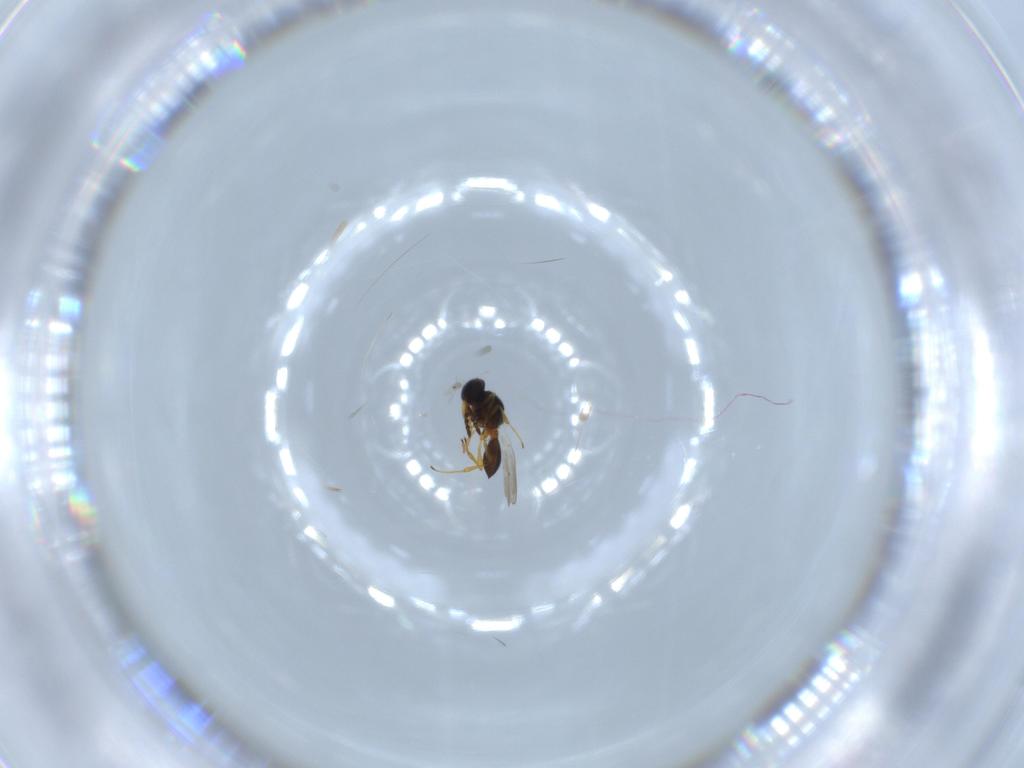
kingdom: Animalia
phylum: Arthropoda
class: Insecta
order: Hymenoptera
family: Platygastridae
